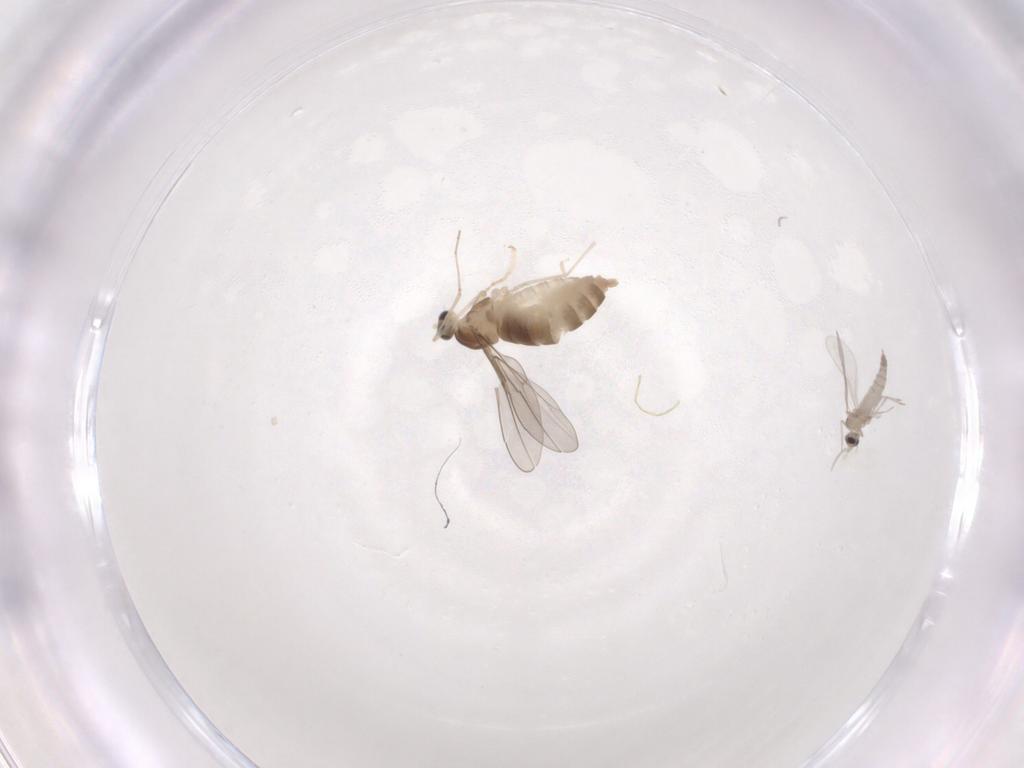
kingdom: Animalia
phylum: Arthropoda
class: Insecta
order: Diptera
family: Cecidomyiidae
